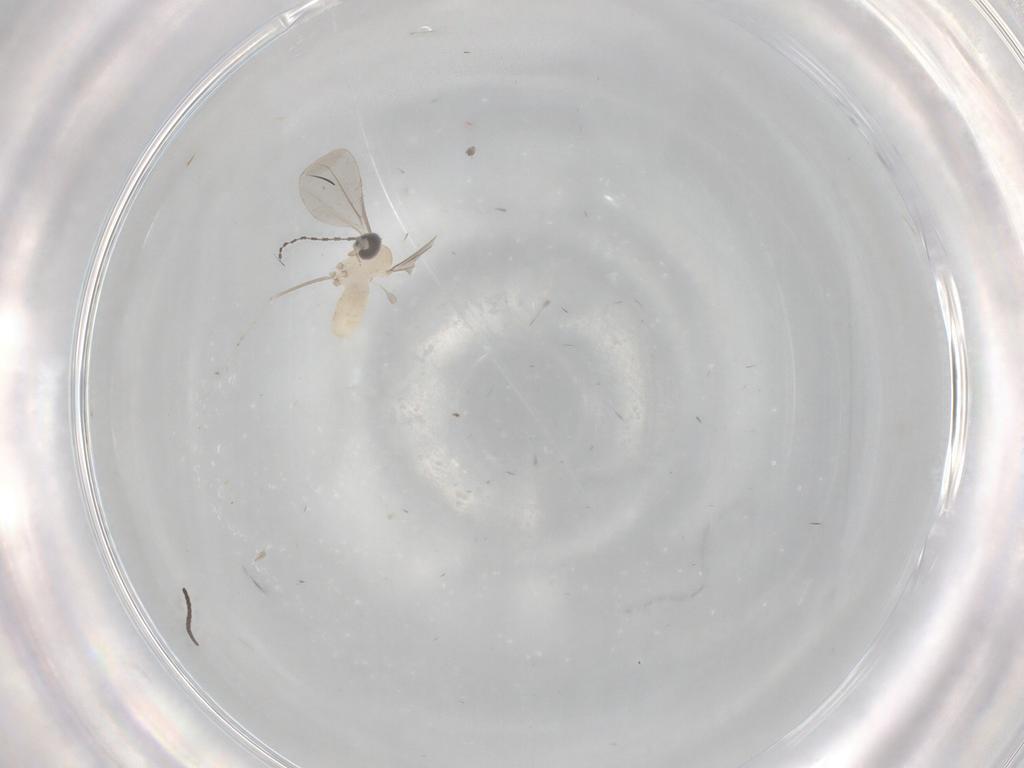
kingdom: Animalia
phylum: Arthropoda
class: Insecta
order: Diptera
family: Cecidomyiidae
